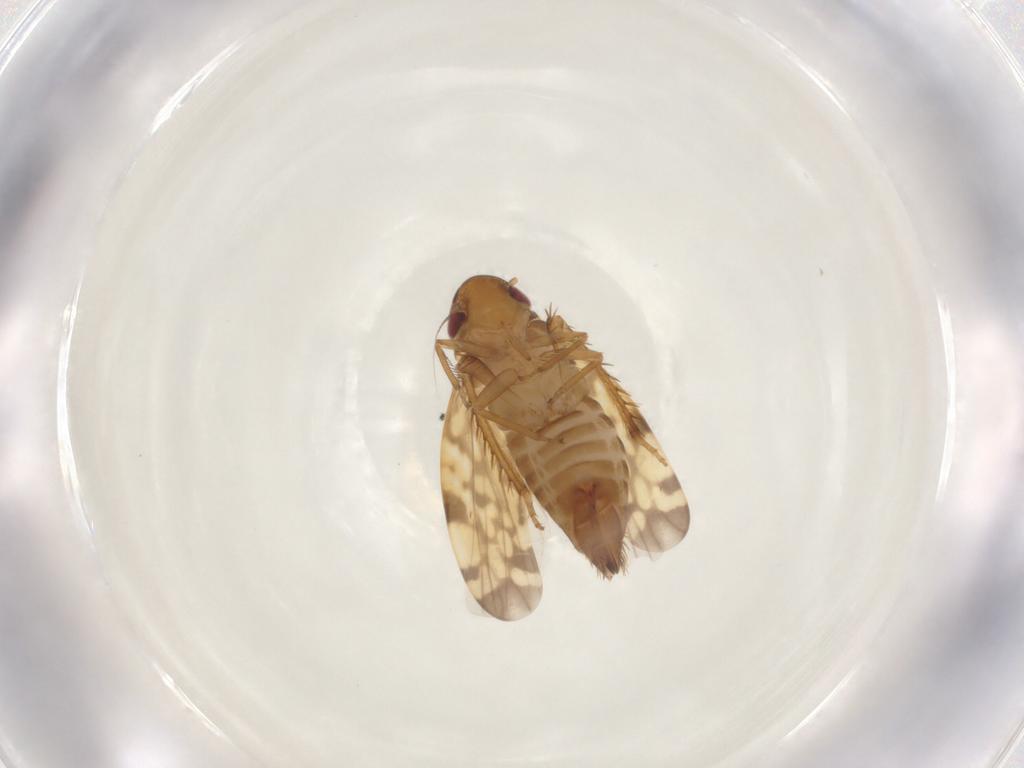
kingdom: Animalia
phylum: Arthropoda
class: Insecta
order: Hemiptera
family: Cicadellidae
